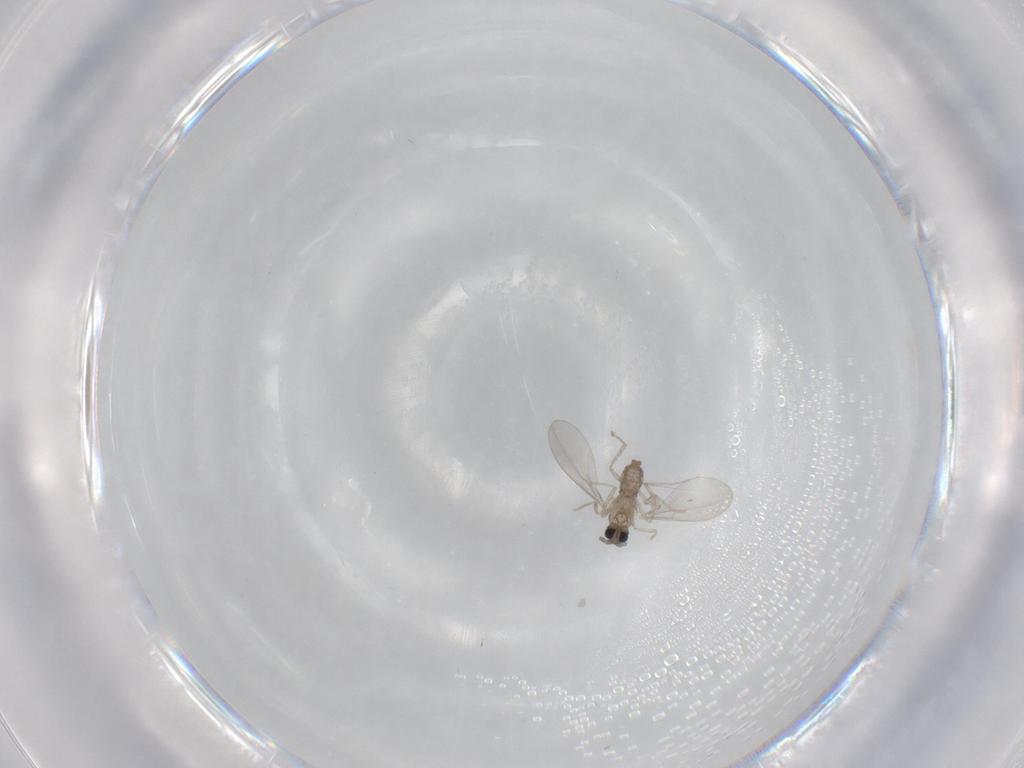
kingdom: Animalia
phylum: Arthropoda
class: Insecta
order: Diptera
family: Cecidomyiidae
